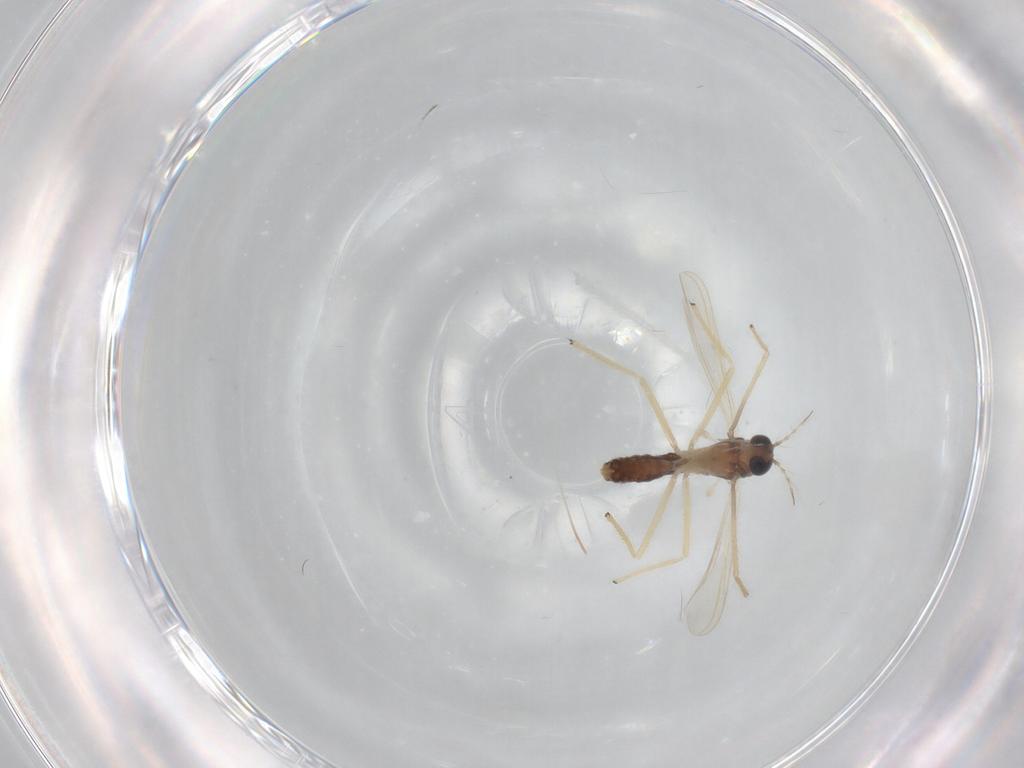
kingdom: Animalia
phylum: Arthropoda
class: Insecta
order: Diptera
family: Chironomidae
